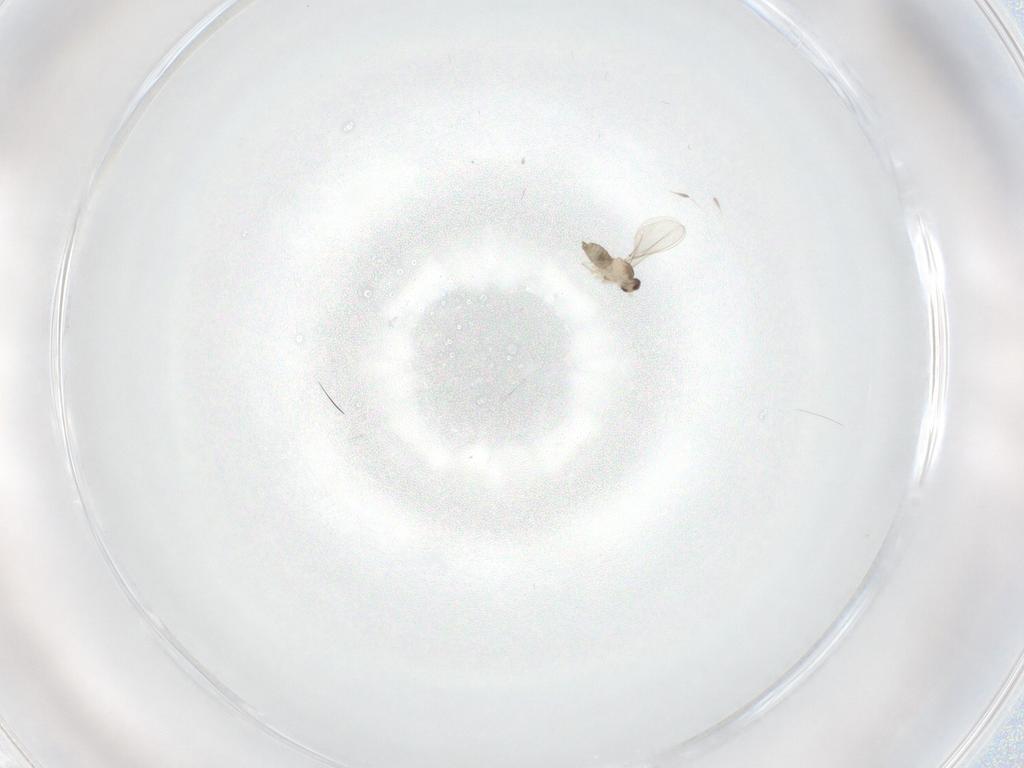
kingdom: Animalia
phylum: Arthropoda
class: Insecta
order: Diptera
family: Cecidomyiidae
